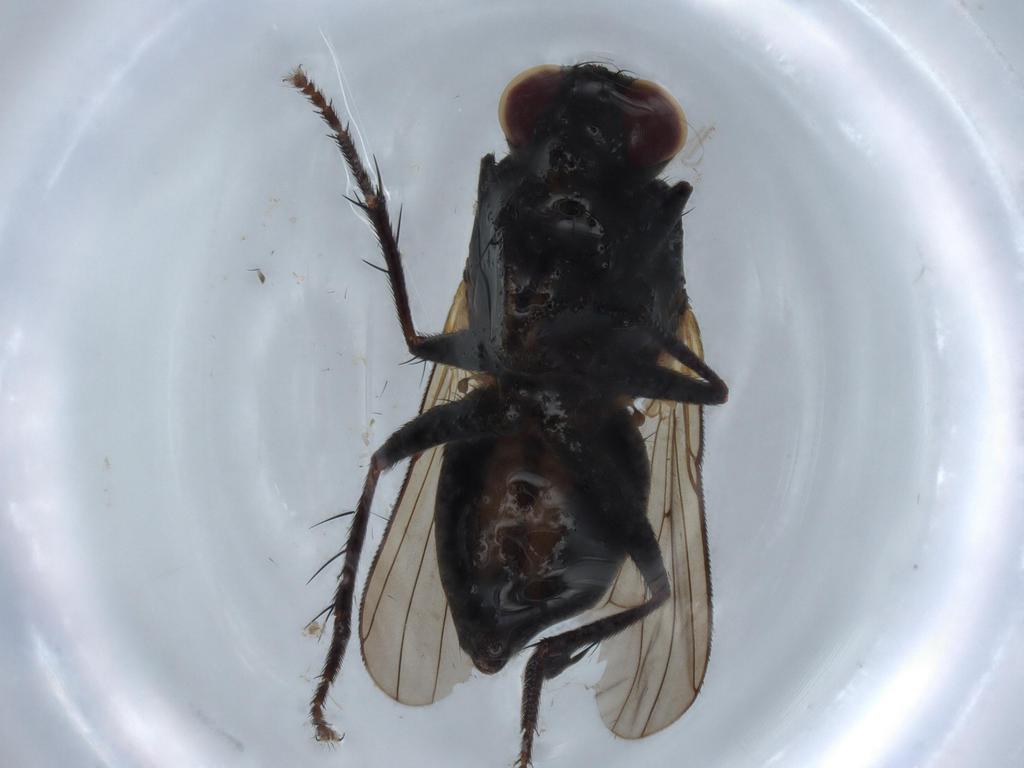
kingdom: Animalia
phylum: Arthropoda
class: Insecta
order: Diptera
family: Muscidae
